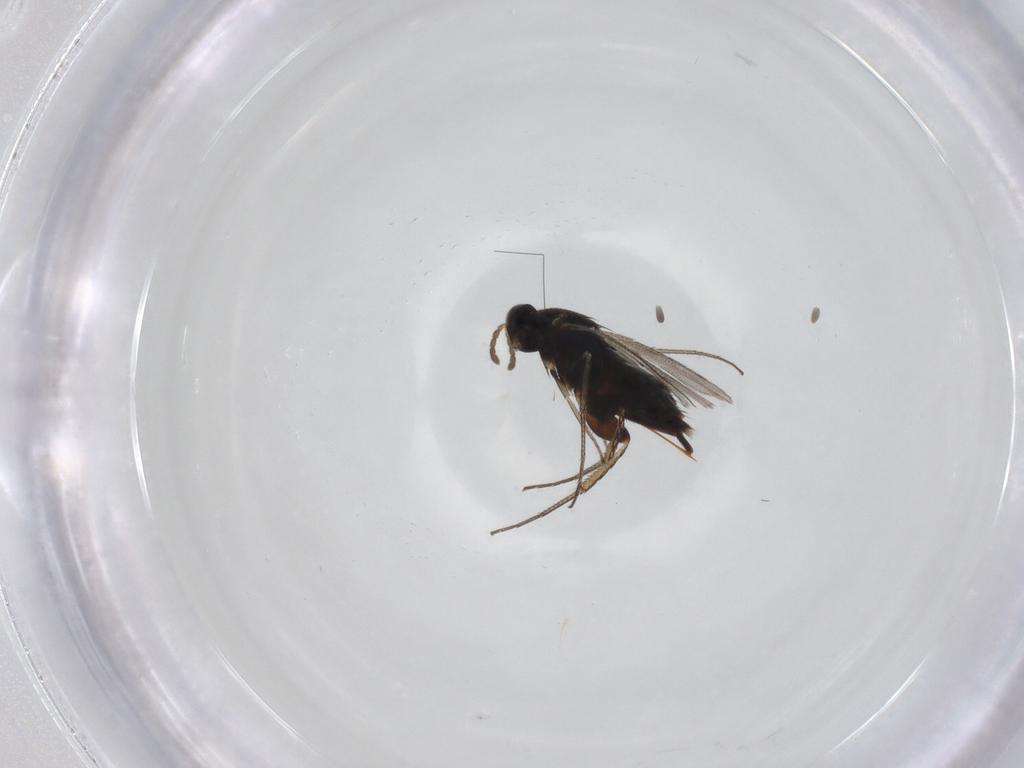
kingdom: Animalia
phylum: Arthropoda
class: Insecta
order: Hymenoptera
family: Eulophidae
